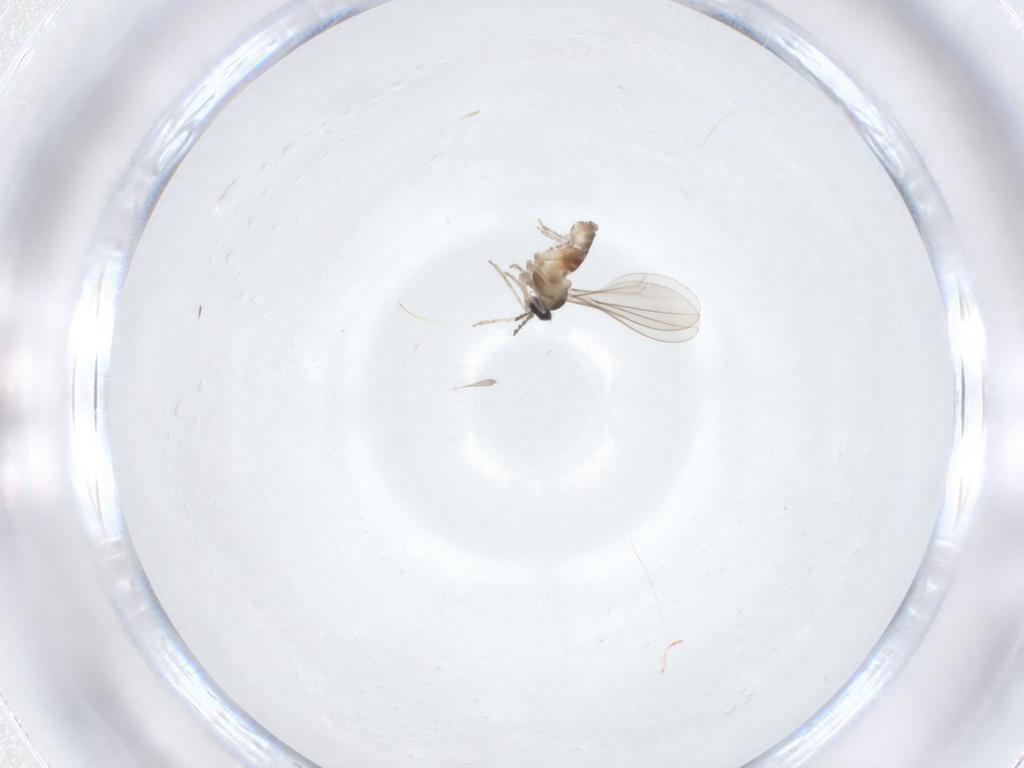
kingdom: Animalia
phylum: Arthropoda
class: Insecta
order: Diptera
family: Cecidomyiidae
